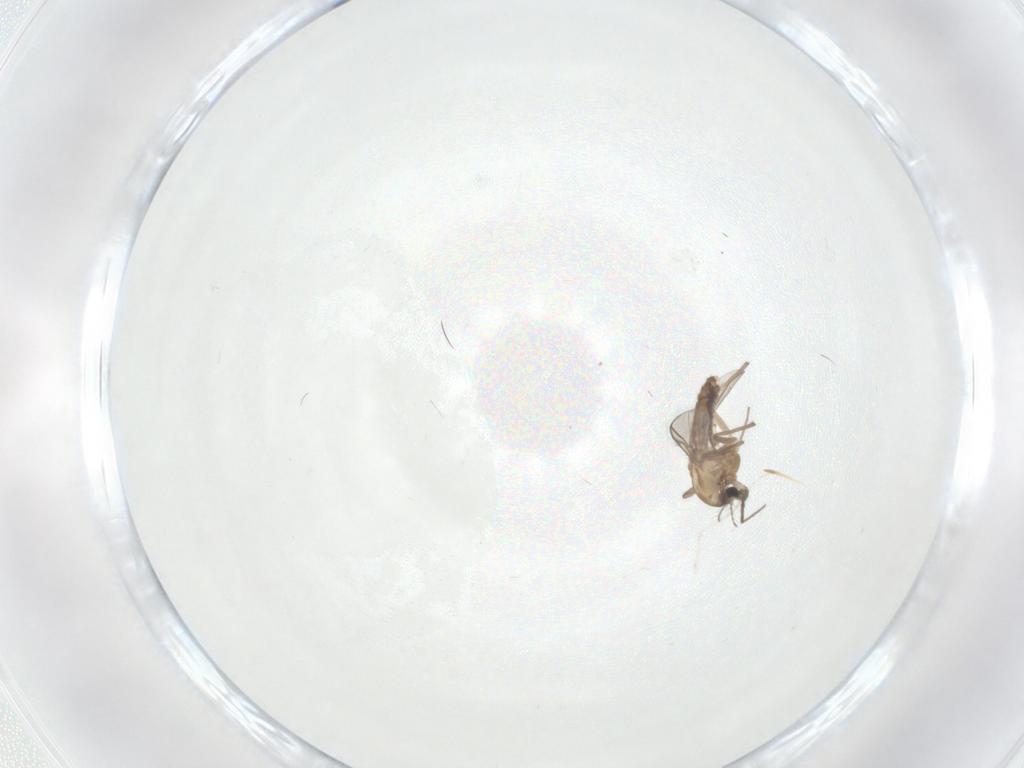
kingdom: Animalia
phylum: Arthropoda
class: Insecta
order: Diptera
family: Chironomidae
